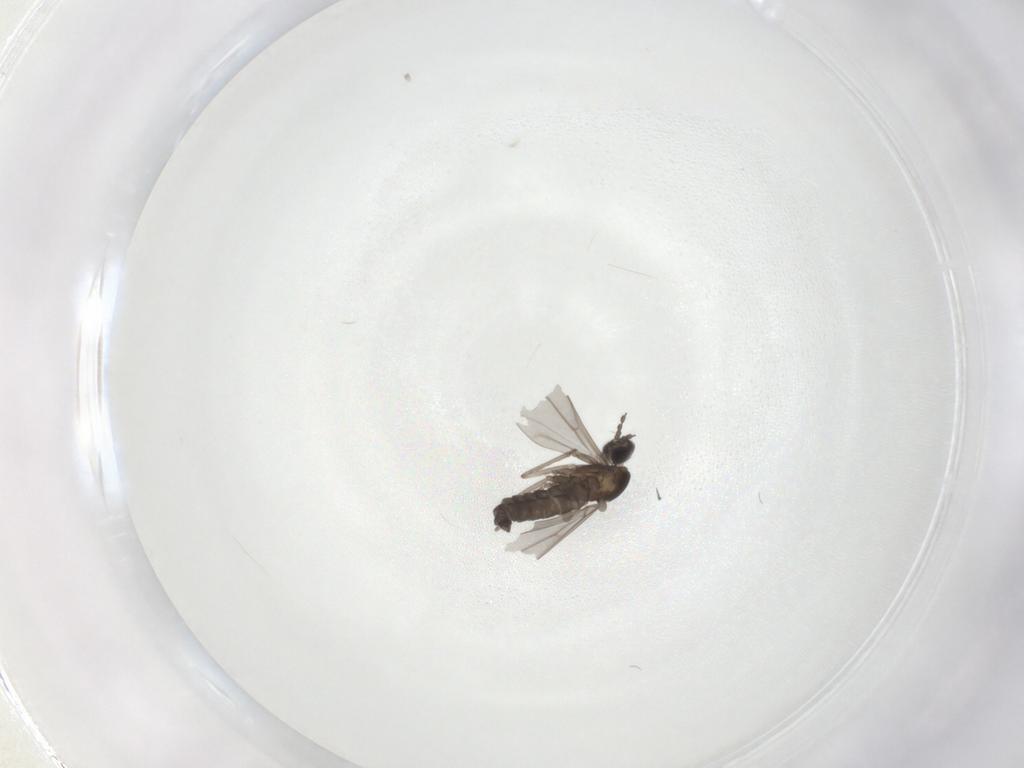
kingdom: Animalia
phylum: Arthropoda
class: Insecta
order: Diptera
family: Cecidomyiidae
